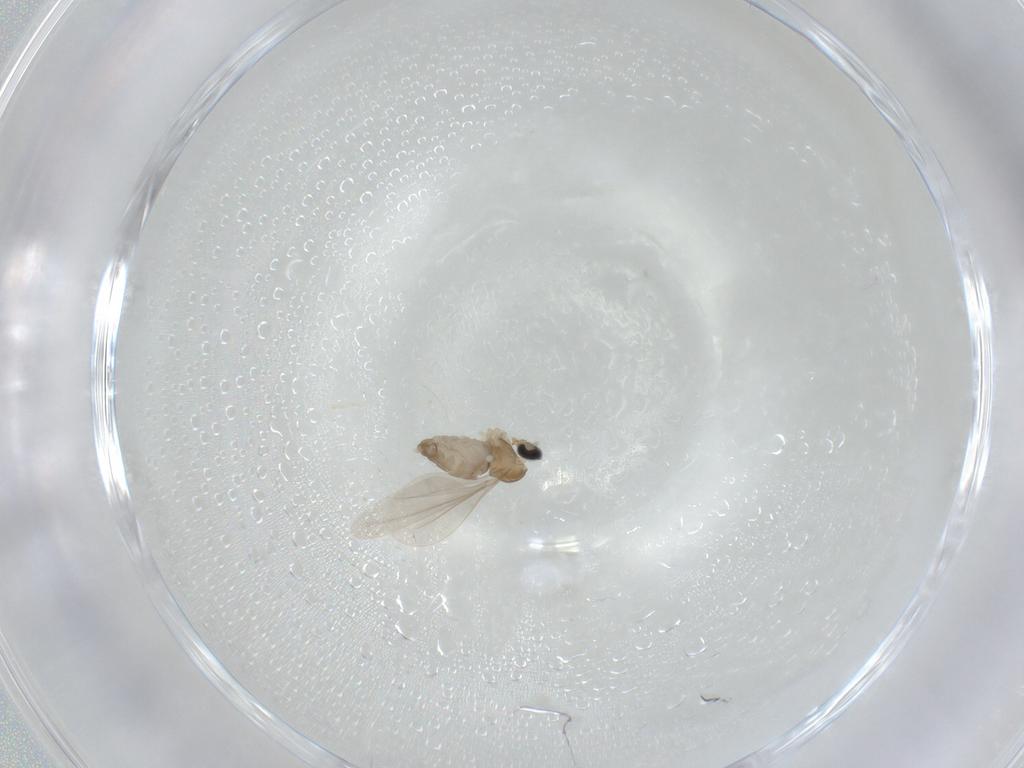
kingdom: Animalia
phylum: Arthropoda
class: Insecta
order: Diptera
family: Cecidomyiidae
